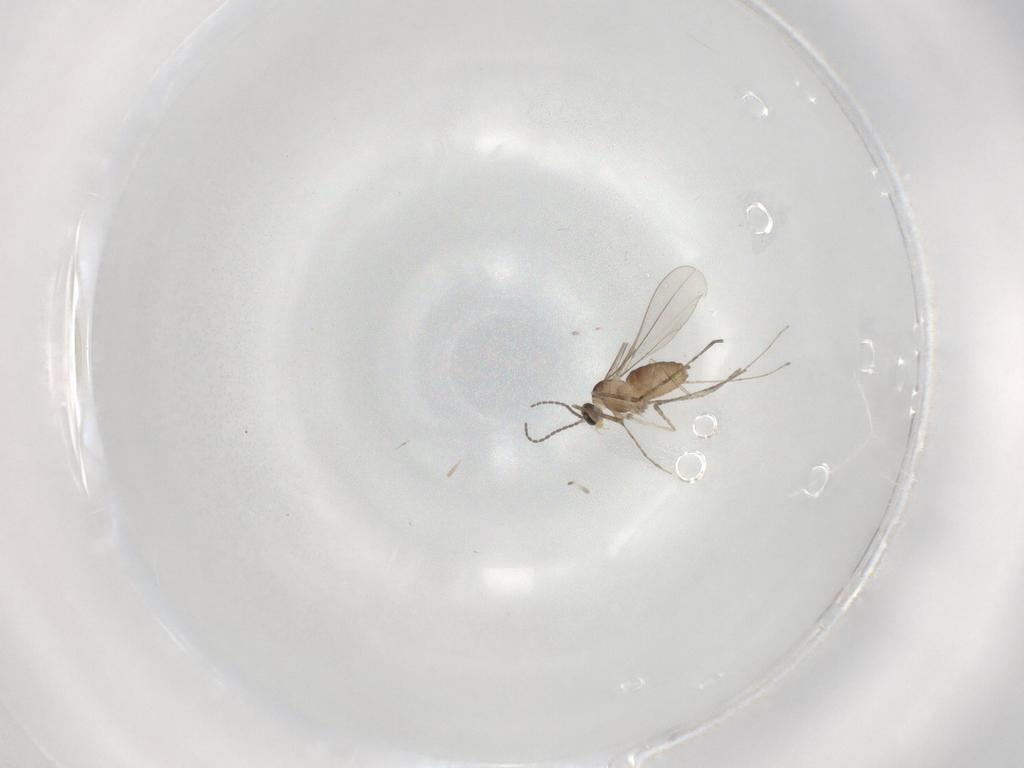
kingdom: Animalia
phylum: Arthropoda
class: Insecta
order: Diptera
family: Cecidomyiidae
